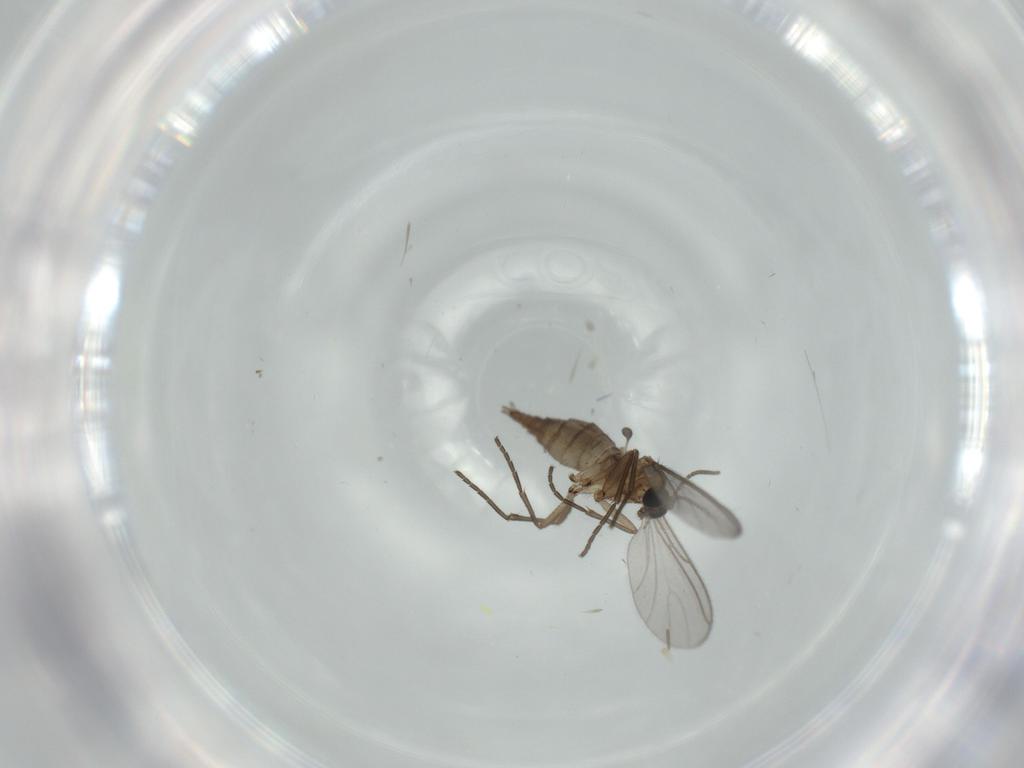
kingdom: Animalia
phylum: Arthropoda
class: Insecta
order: Diptera
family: Sciaridae
